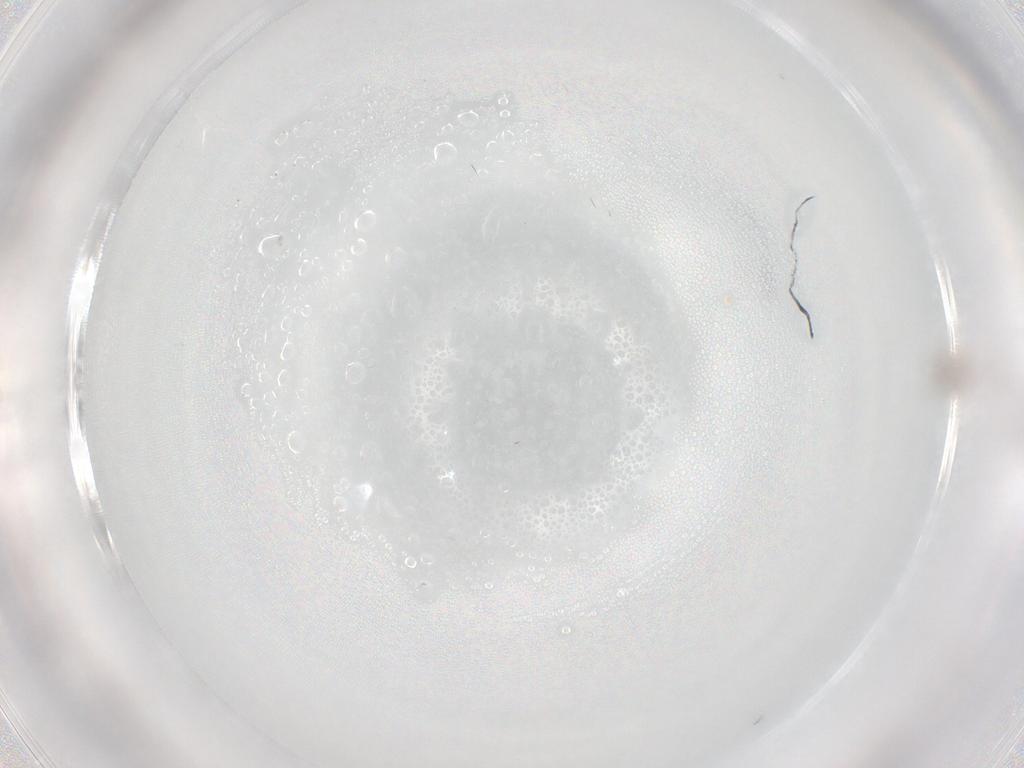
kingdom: Animalia
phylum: Arthropoda
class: Insecta
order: Diptera
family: Cecidomyiidae
